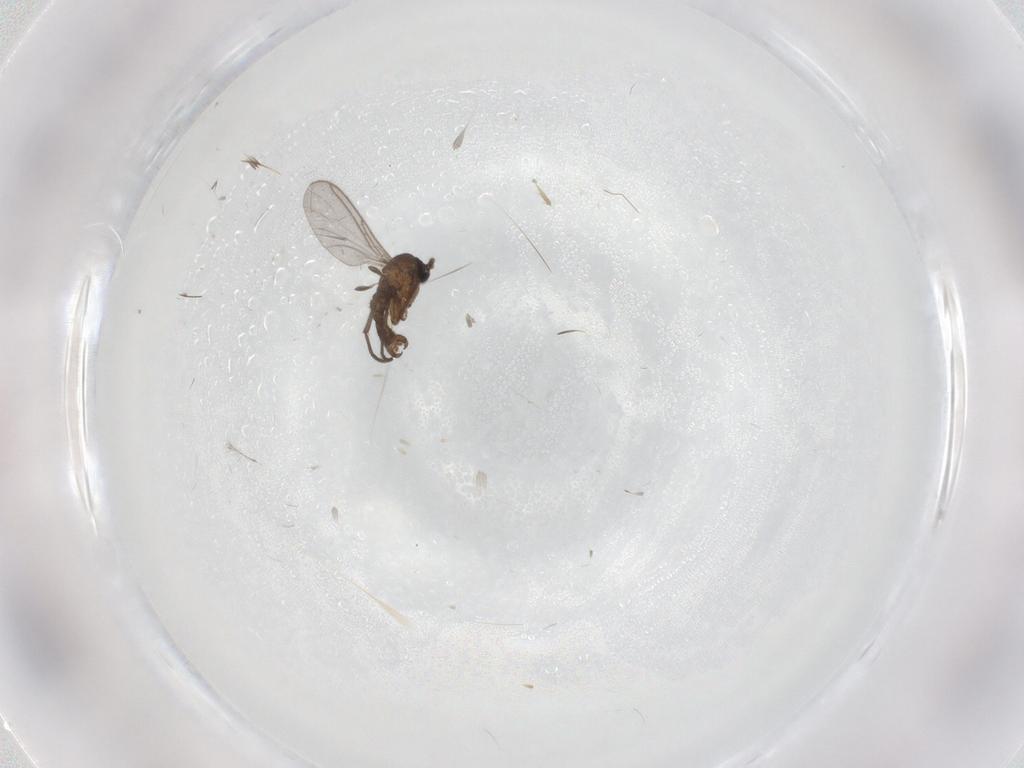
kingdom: Animalia
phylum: Arthropoda
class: Insecta
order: Diptera
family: Sciaridae
